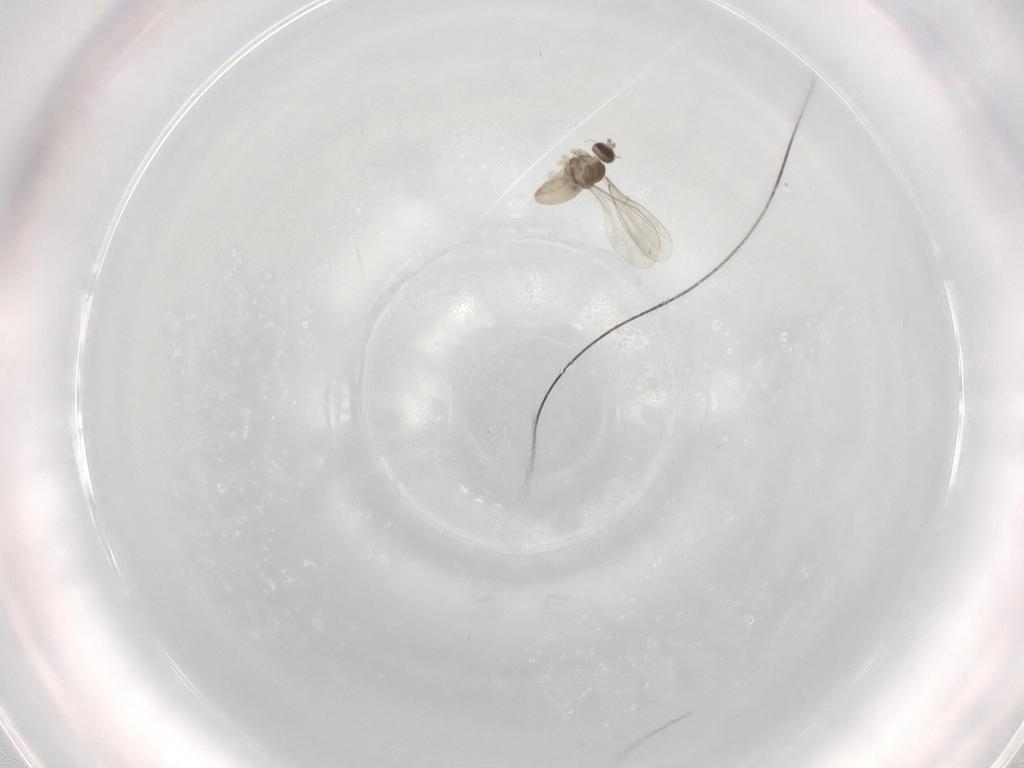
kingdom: Animalia
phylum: Arthropoda
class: Insecta
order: Diptera
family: Cecidomyiidae
